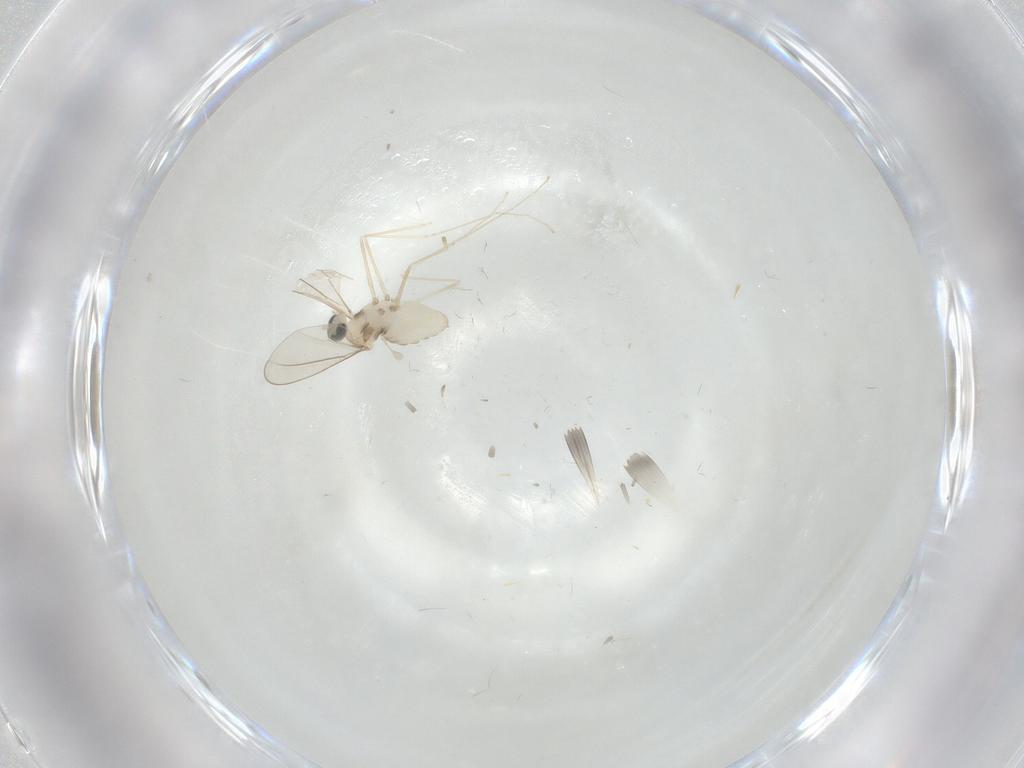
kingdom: Animalia
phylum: Arthropoda
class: Insecta
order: Diptera
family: Cecidomyiidae
